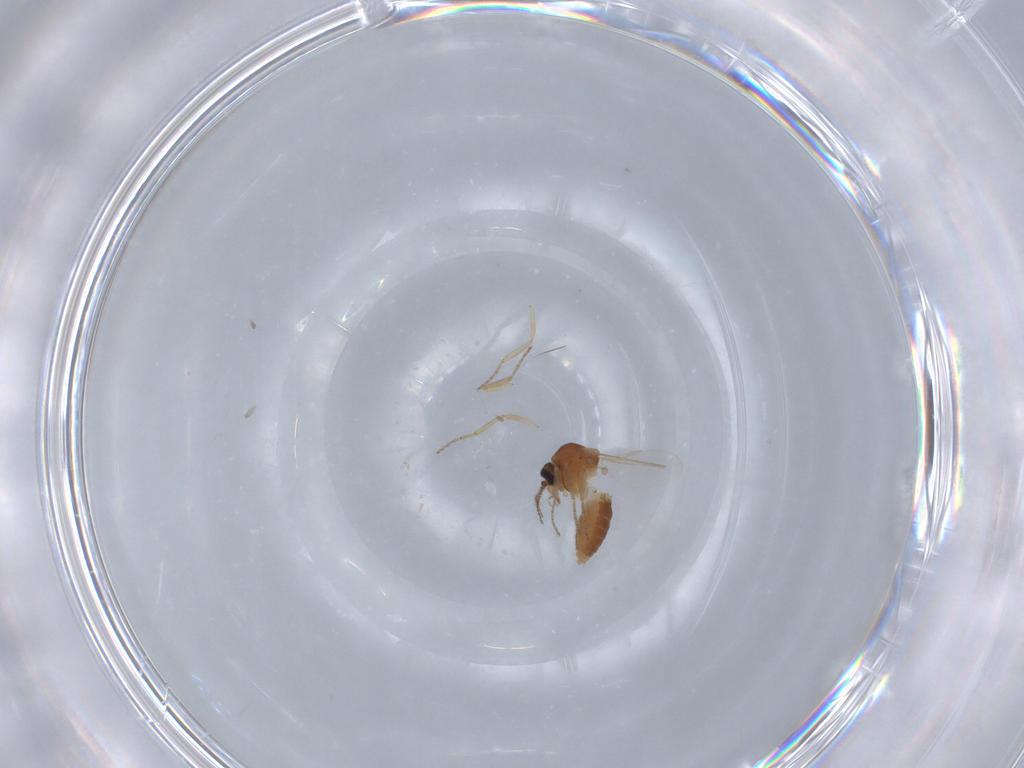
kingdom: Animalia
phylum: Arthropoda
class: Insecta
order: Diptera
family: Ceratopogonidae
